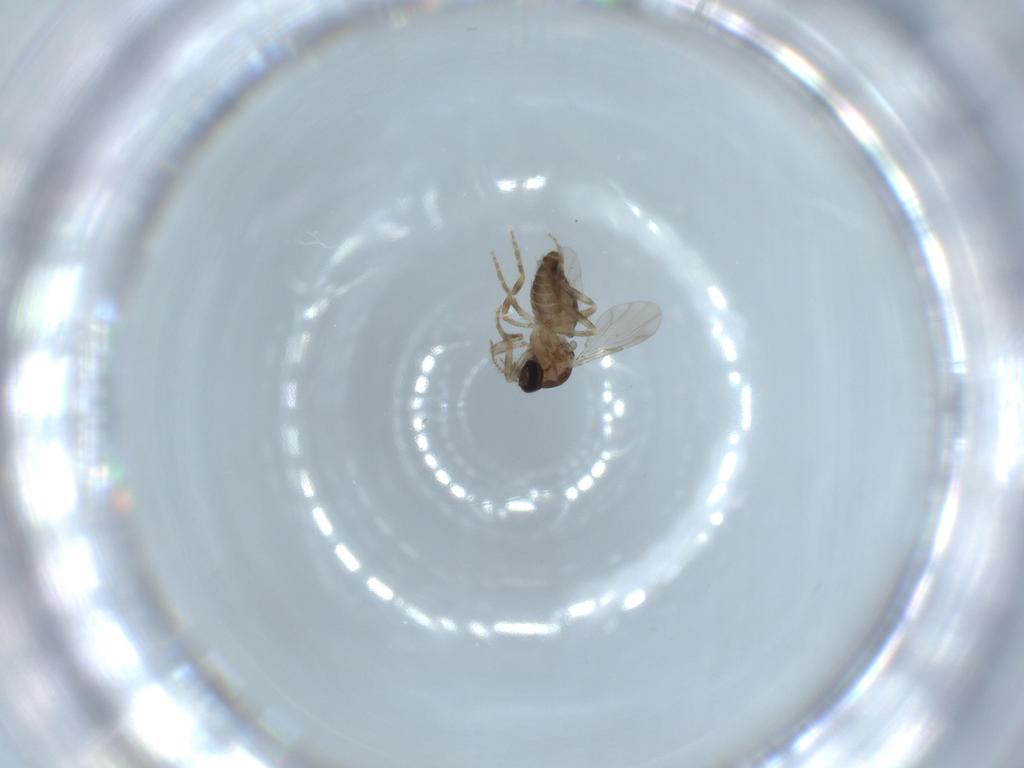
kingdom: Animalia
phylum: Arthropoda
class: Insecta
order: Diptera
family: Ceratopogonidae
